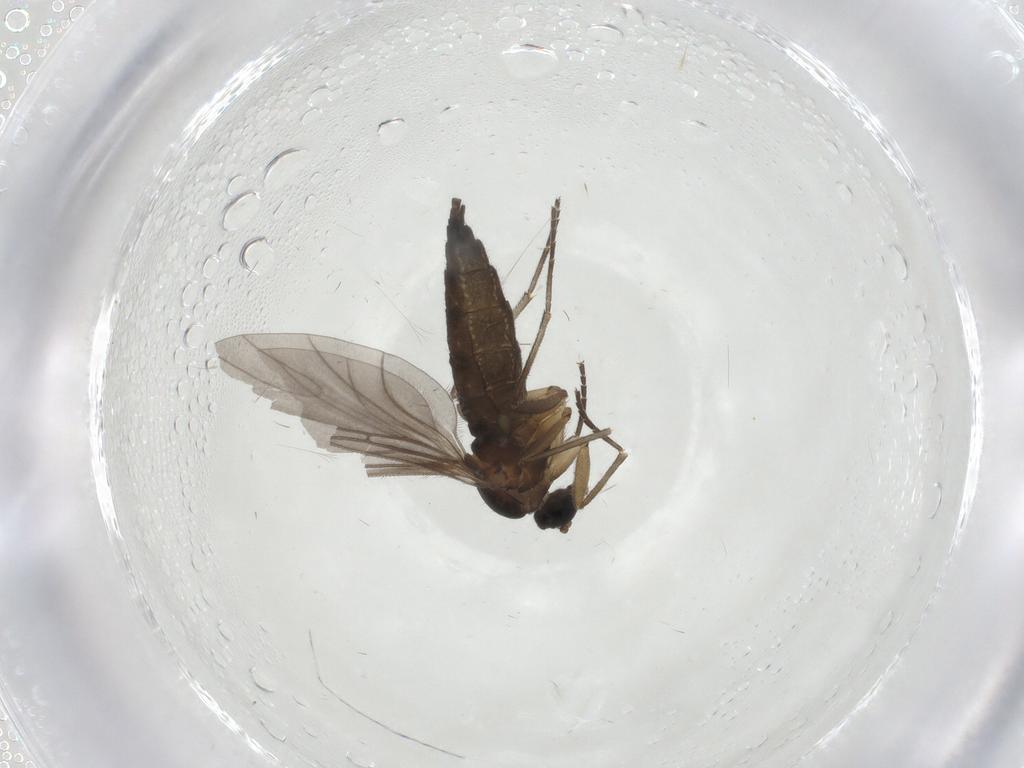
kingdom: Animalia
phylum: Arthropoda
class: Insecta
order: Diptera
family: Sciaridae
